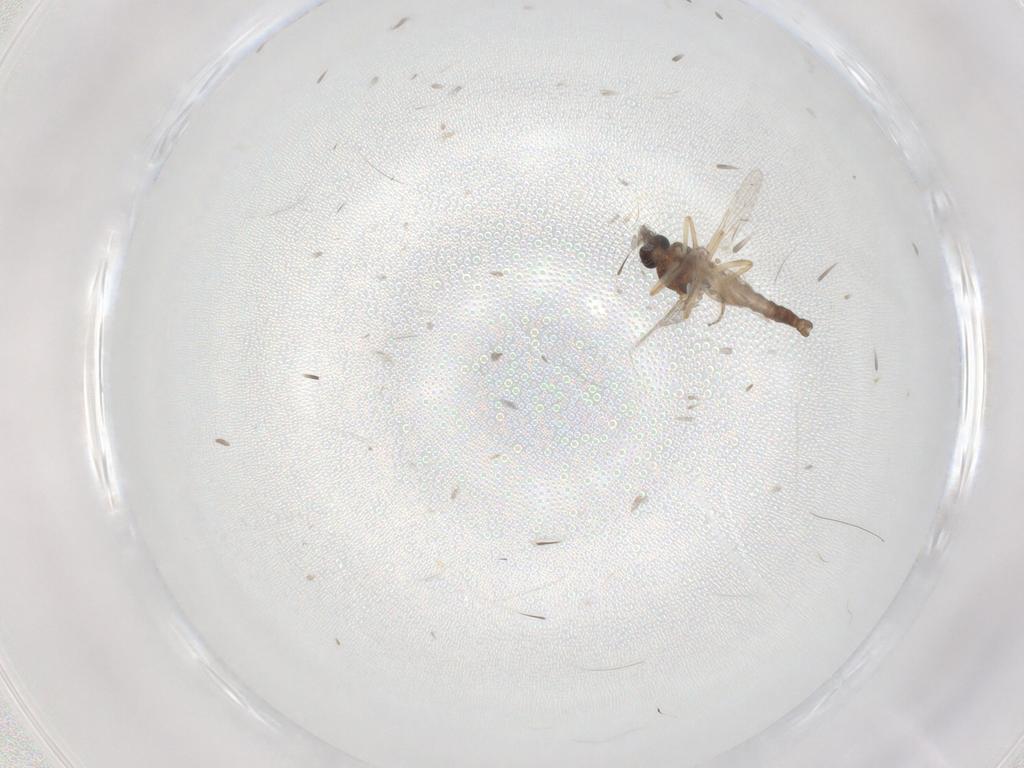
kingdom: Animalia
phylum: Arthropoda
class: Insecta
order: Diptera
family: Ceratopogonidae
